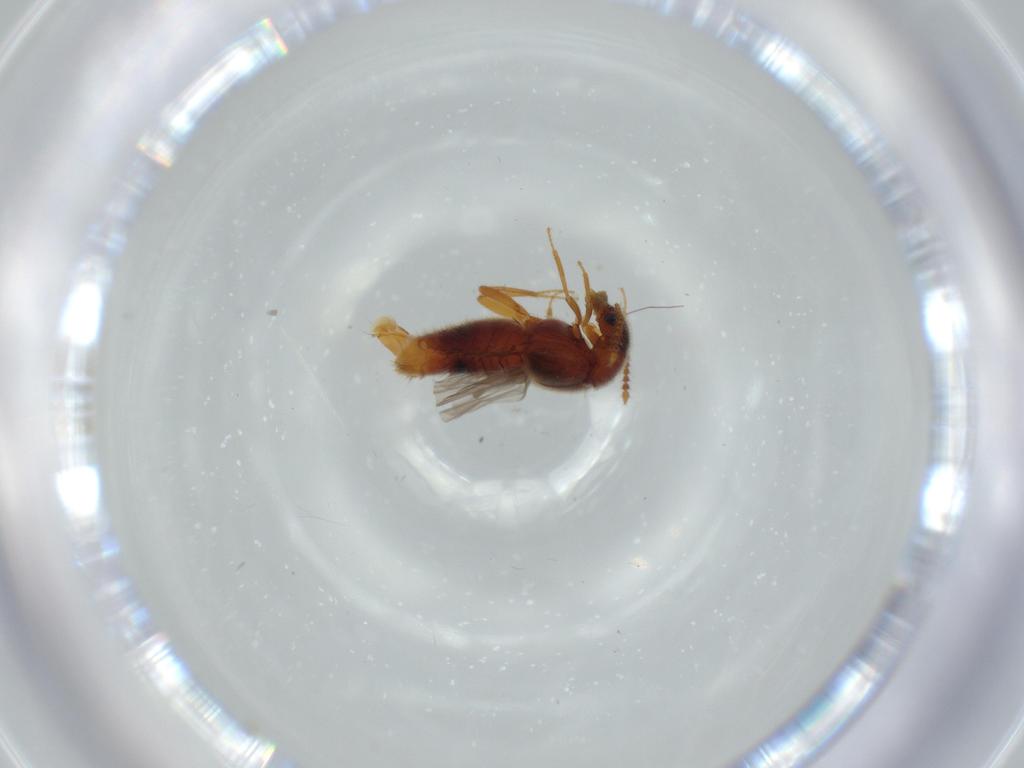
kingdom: Animalia
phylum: Arthropoda
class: Insecta
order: Coleoptera
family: Staphylinidae
